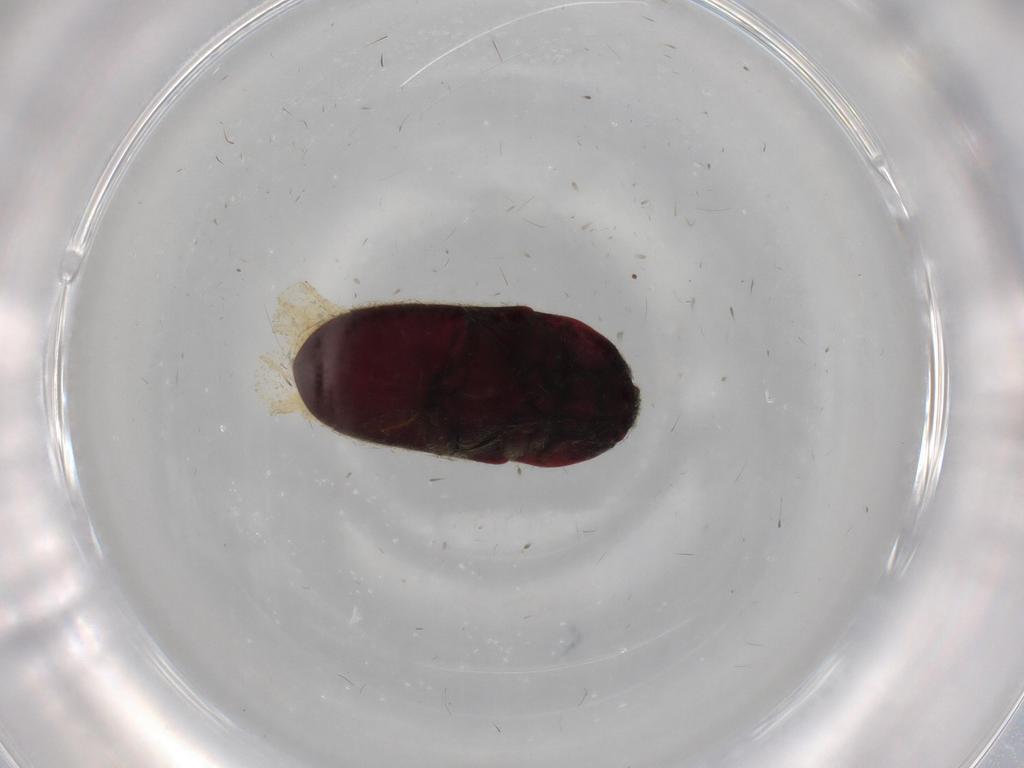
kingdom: Animalia
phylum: Arthropoda
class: Insecta
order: Coleoptera
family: Throscidae
